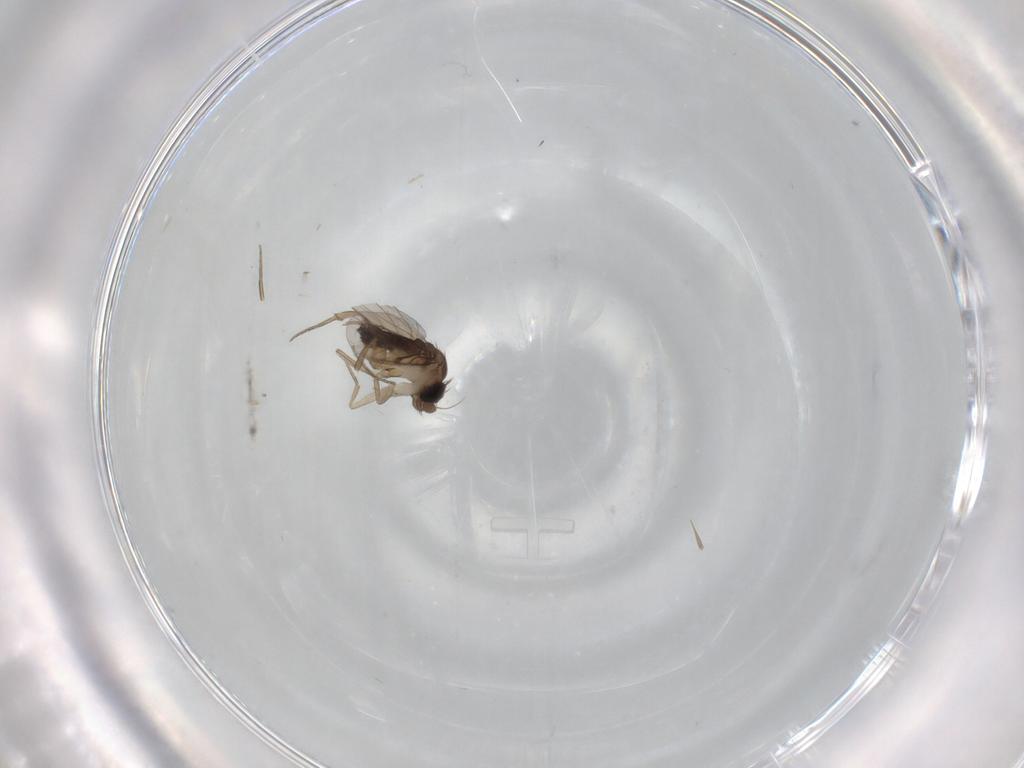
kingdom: Animalia
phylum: Arthropoda
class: Insecta
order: Diptera
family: Phoridae
